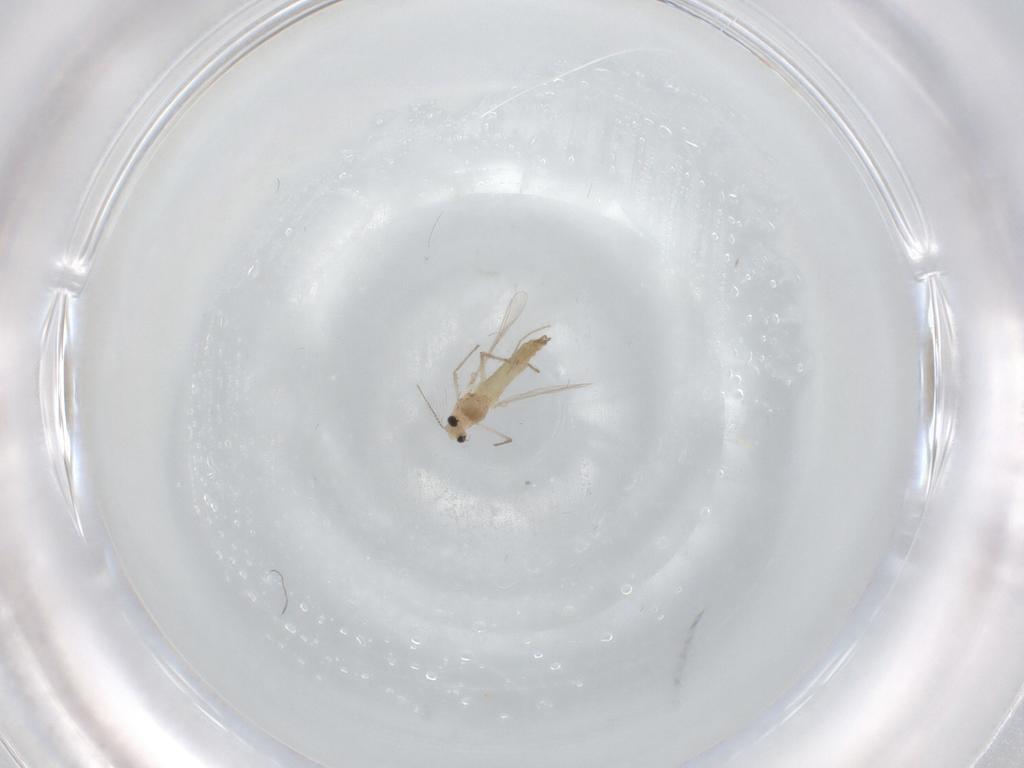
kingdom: Animalia
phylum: Arthropoda
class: Insecta
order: Diptera
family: Chironomidae
